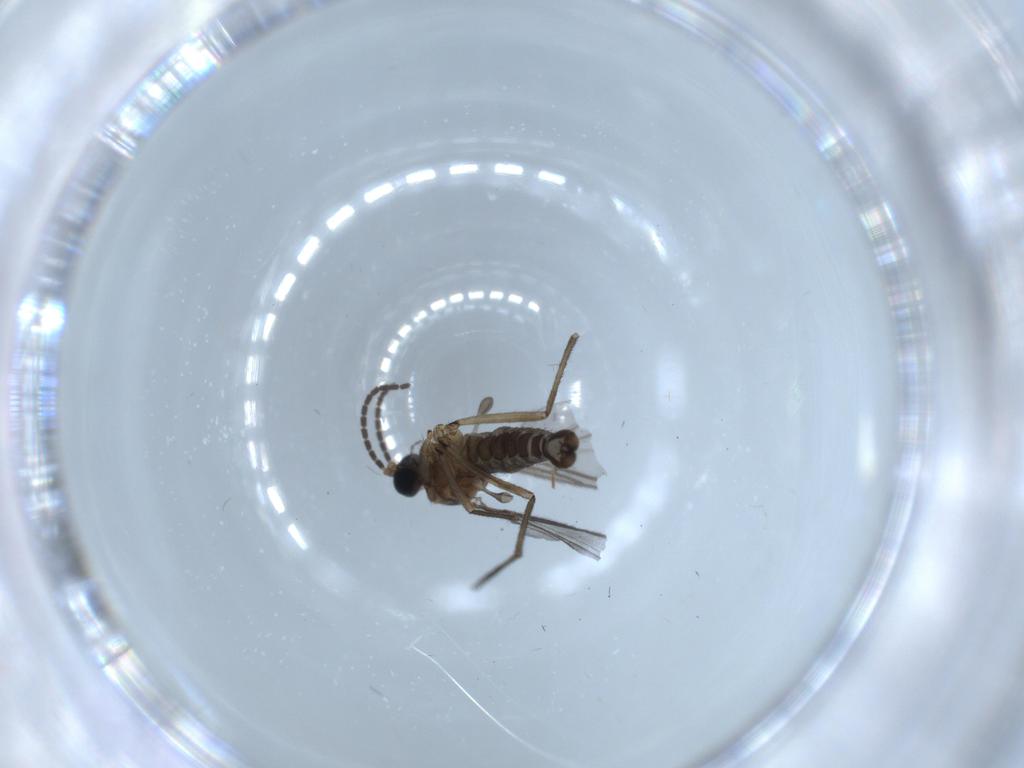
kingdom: Animalia
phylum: Arthropoda
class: Insecta
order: Diptera
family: Sciaridae
